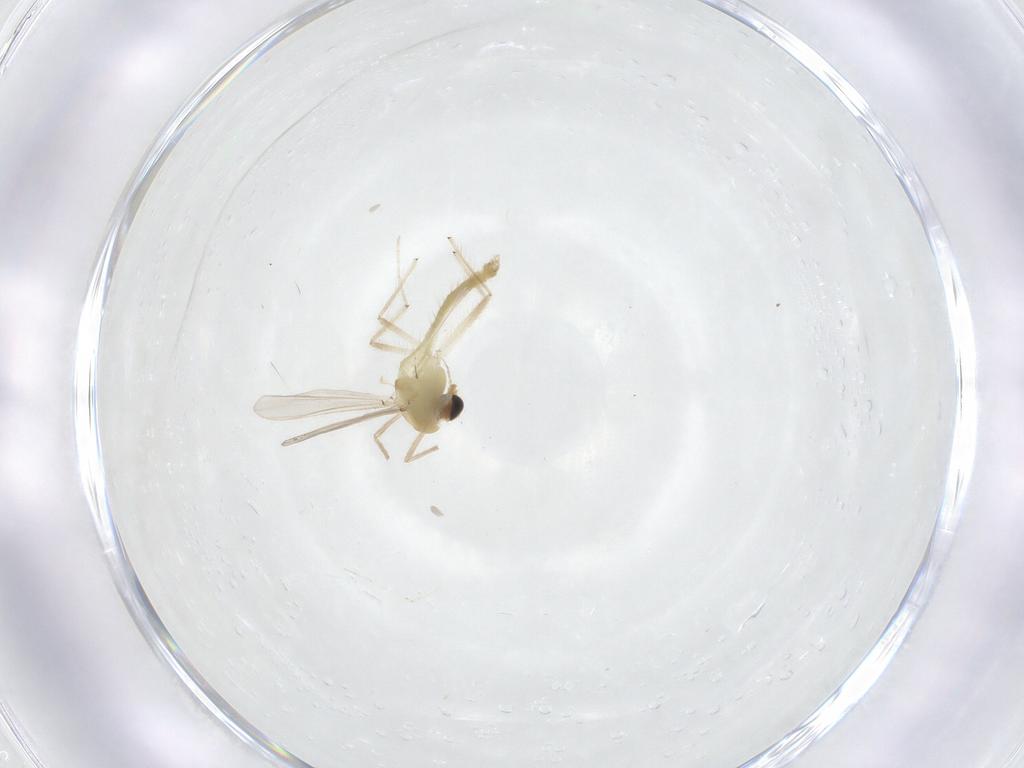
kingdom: Animalia
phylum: Arthropoda
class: Insecta
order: Diptera
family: Chironomidae
